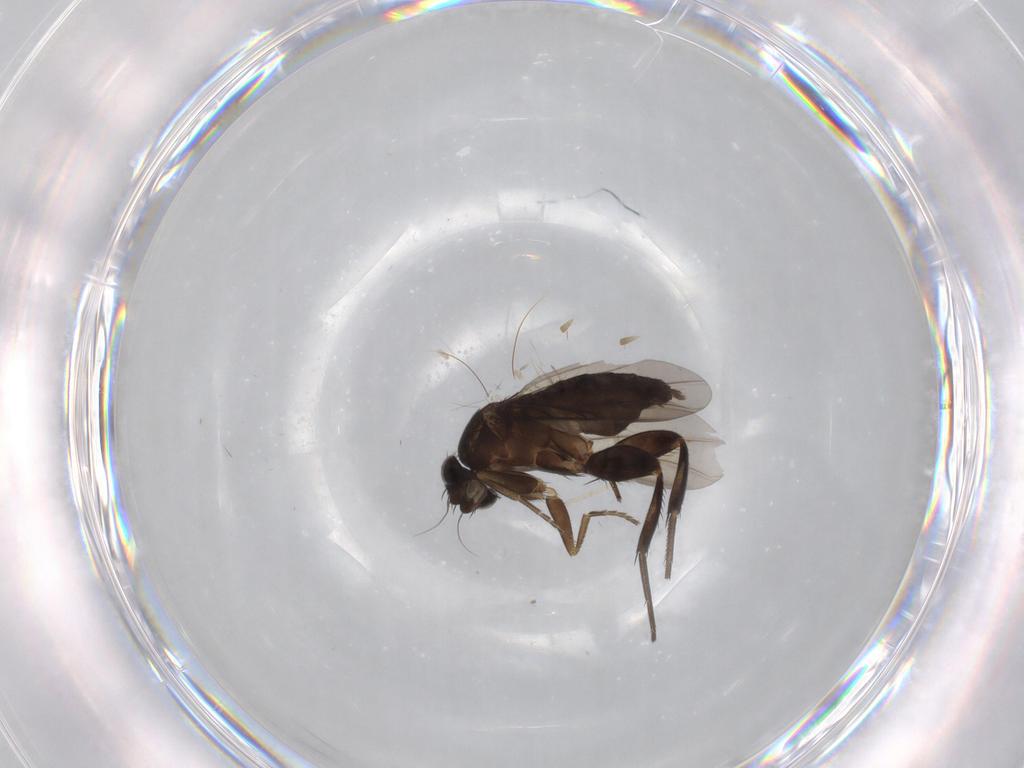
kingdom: Animalia
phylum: Arthropoda
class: Insecta
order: Diptera
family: Phoridae
